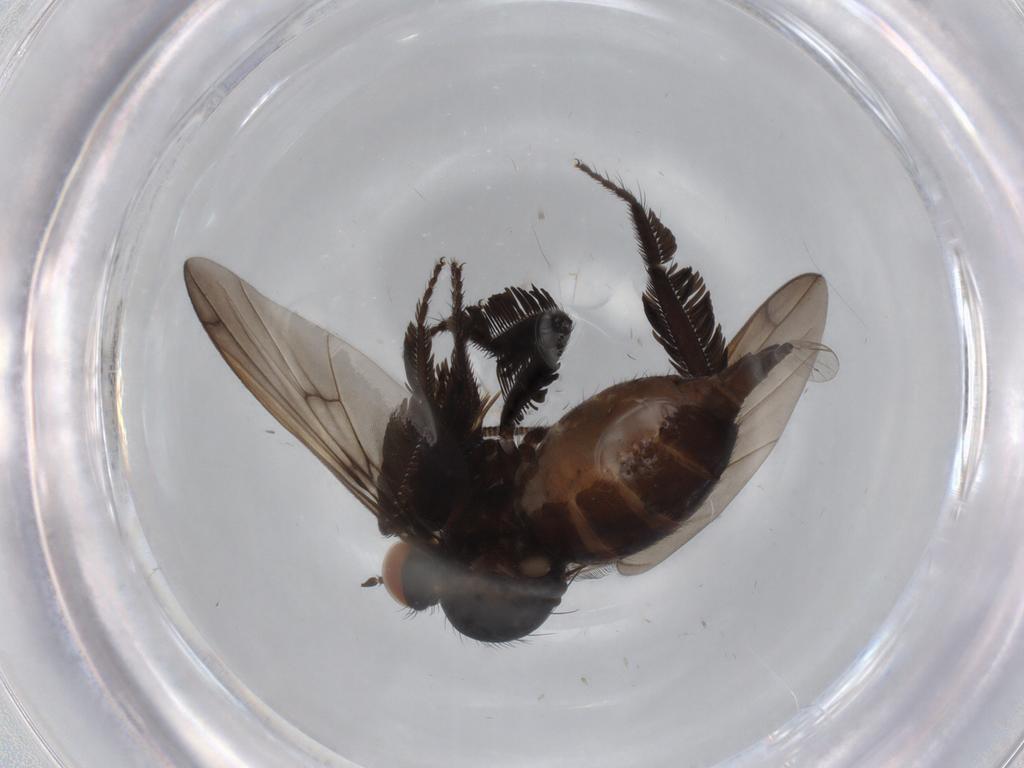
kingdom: Animalia
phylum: Arthropoda
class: Insecta
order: Diptera
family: Empididae
